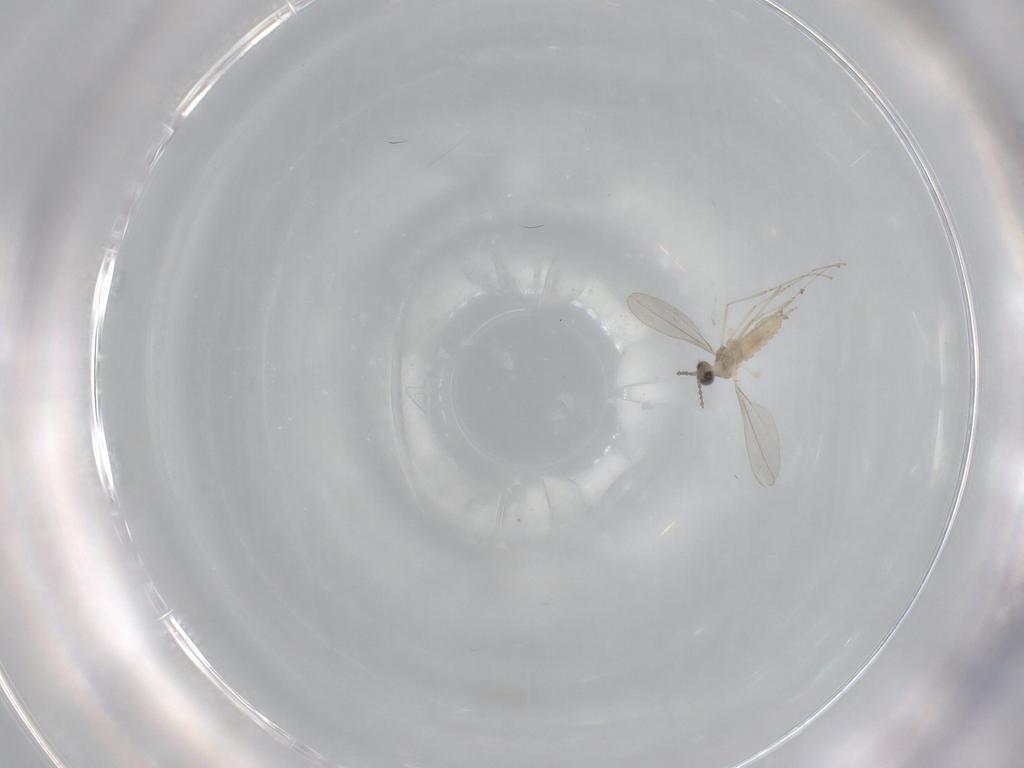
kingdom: Animalia
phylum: Arthropoda
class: Insecta
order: Diptera
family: Cecidomyiidae
